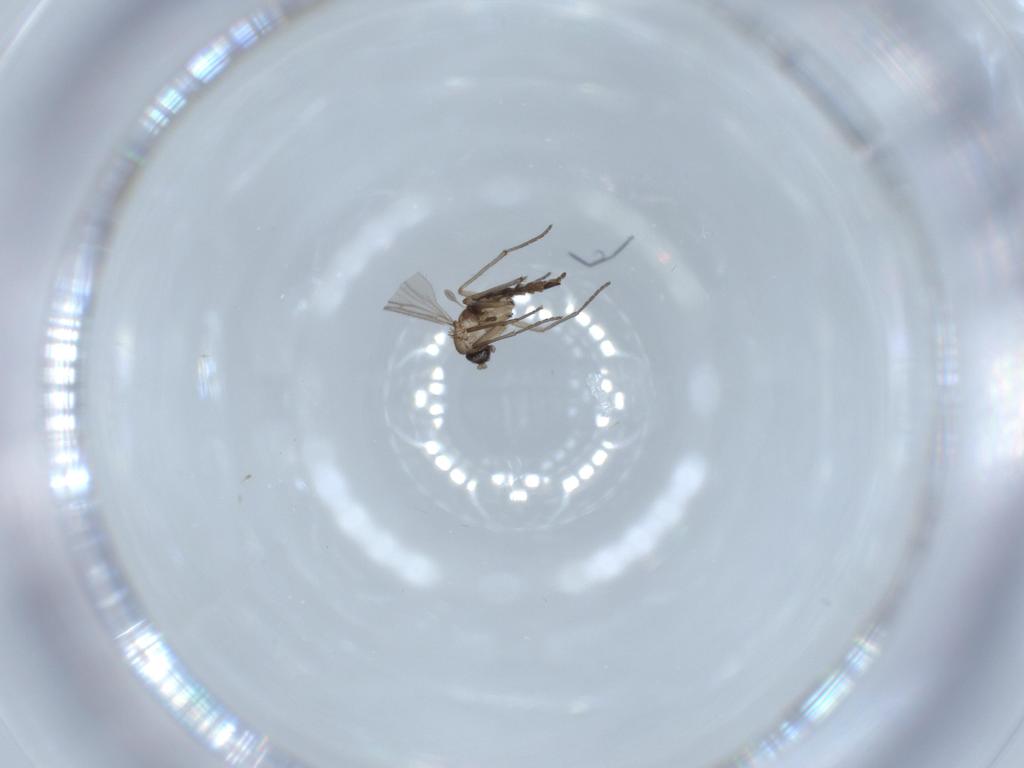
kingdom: Animalia
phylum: Arthropoda
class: Insecta
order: Diptera
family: Sciaridae
